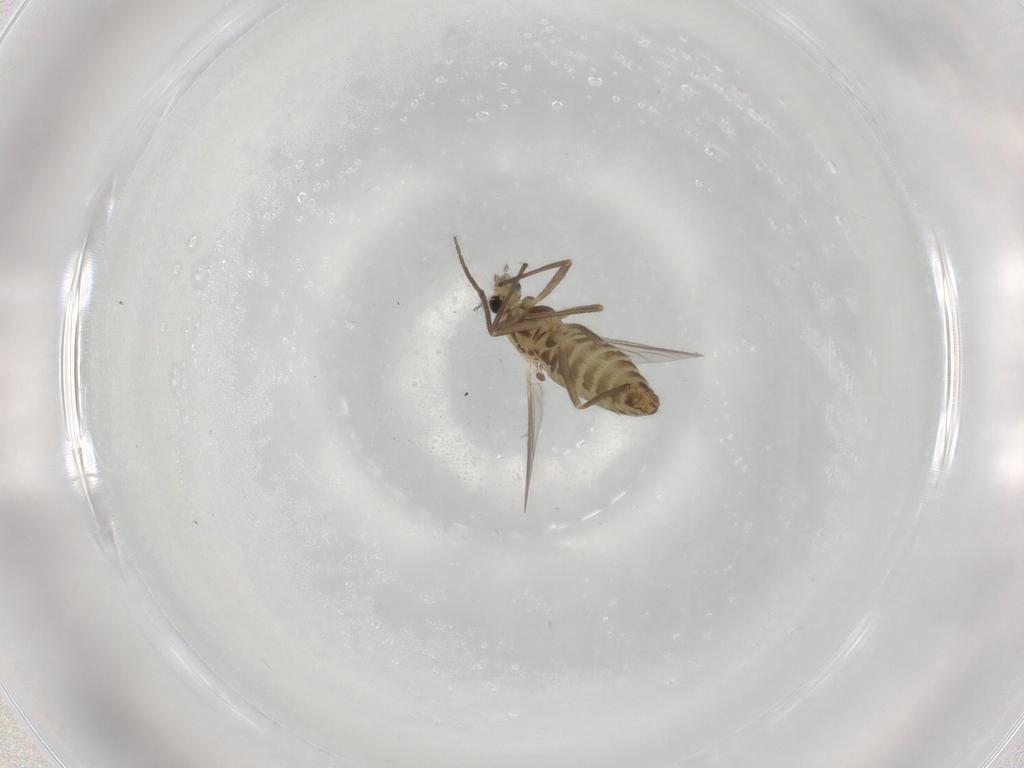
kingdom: Animalia
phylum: Arthropoda
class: Insecta
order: Diptera
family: Chironomidae
